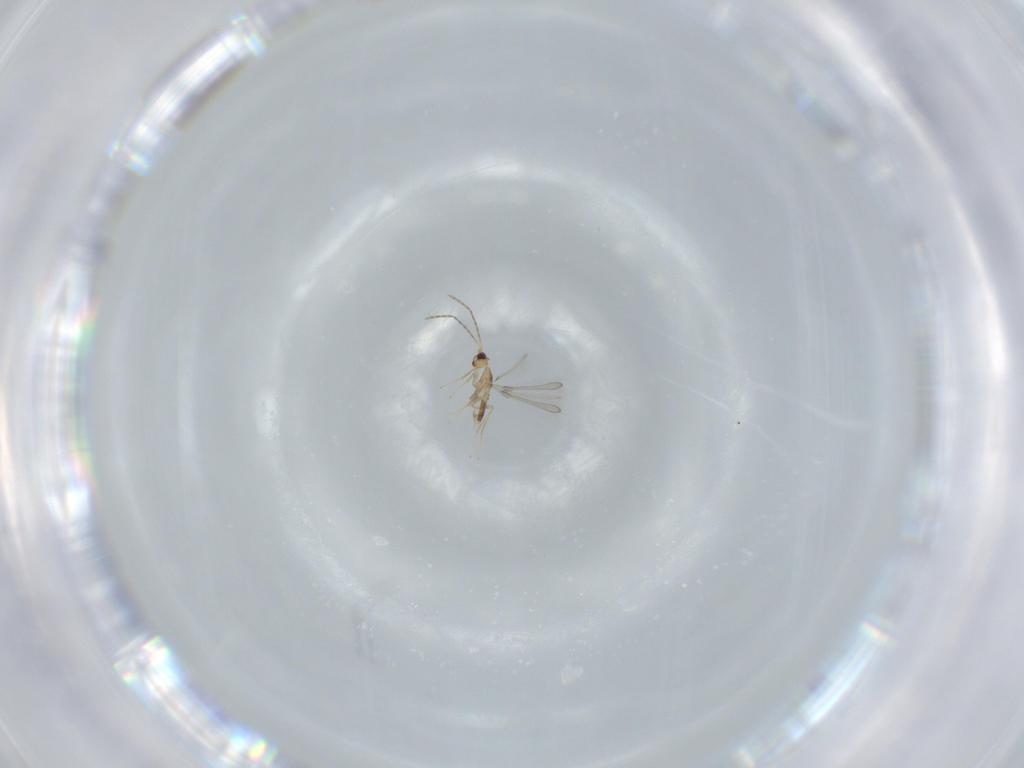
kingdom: Animalia
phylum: Arthropoda
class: Insecta
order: Hymenoptera
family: Mymaridae
